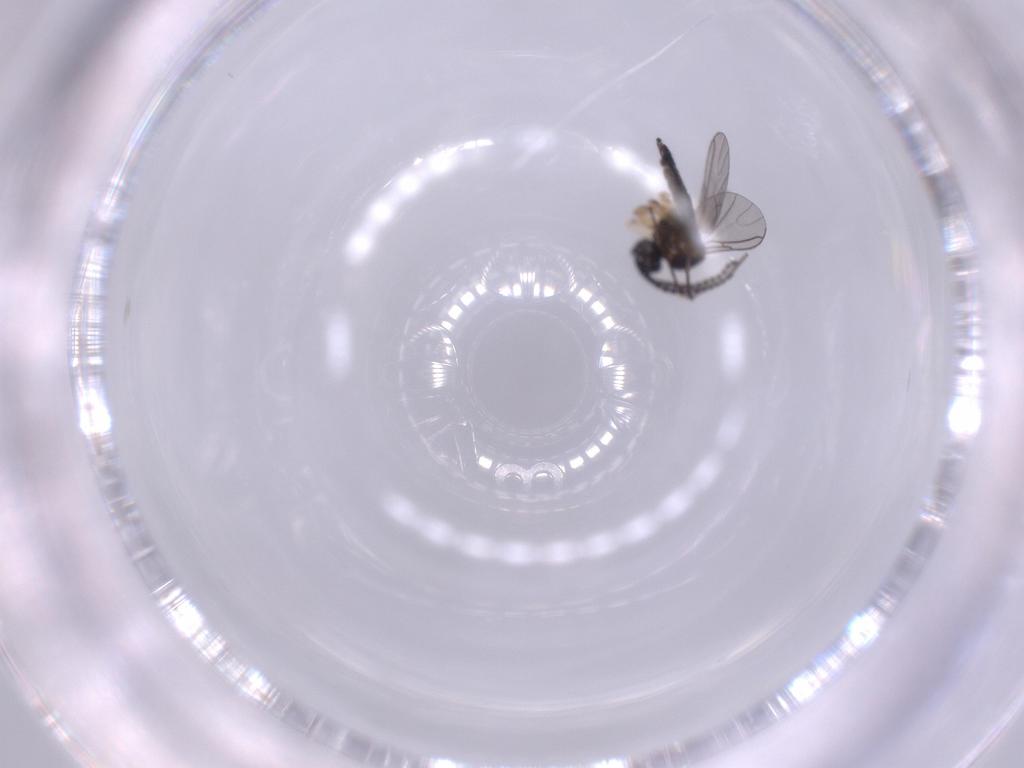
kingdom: Animalia
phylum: Arthropoda
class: Insecta
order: Diptera
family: Sciaridae
